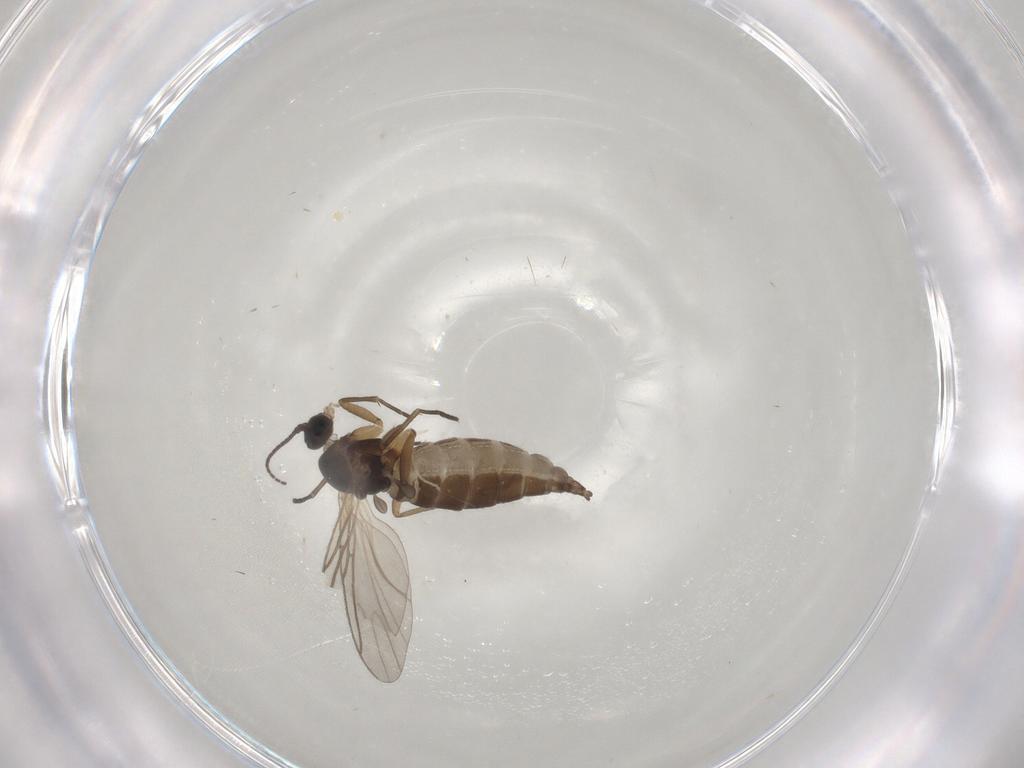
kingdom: Animalia
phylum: Arthropoda
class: Insecta
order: Diptera
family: Sciaridae
